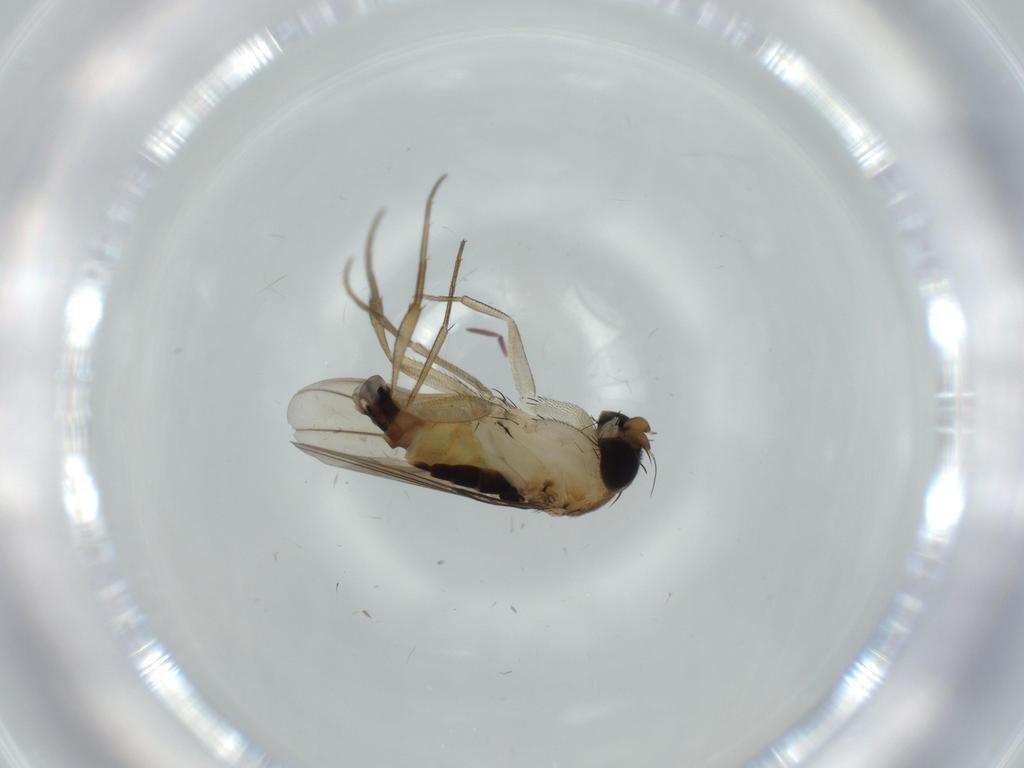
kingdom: Animalia
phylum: Arthropoda
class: Insecta
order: Diptera
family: Phoridae
